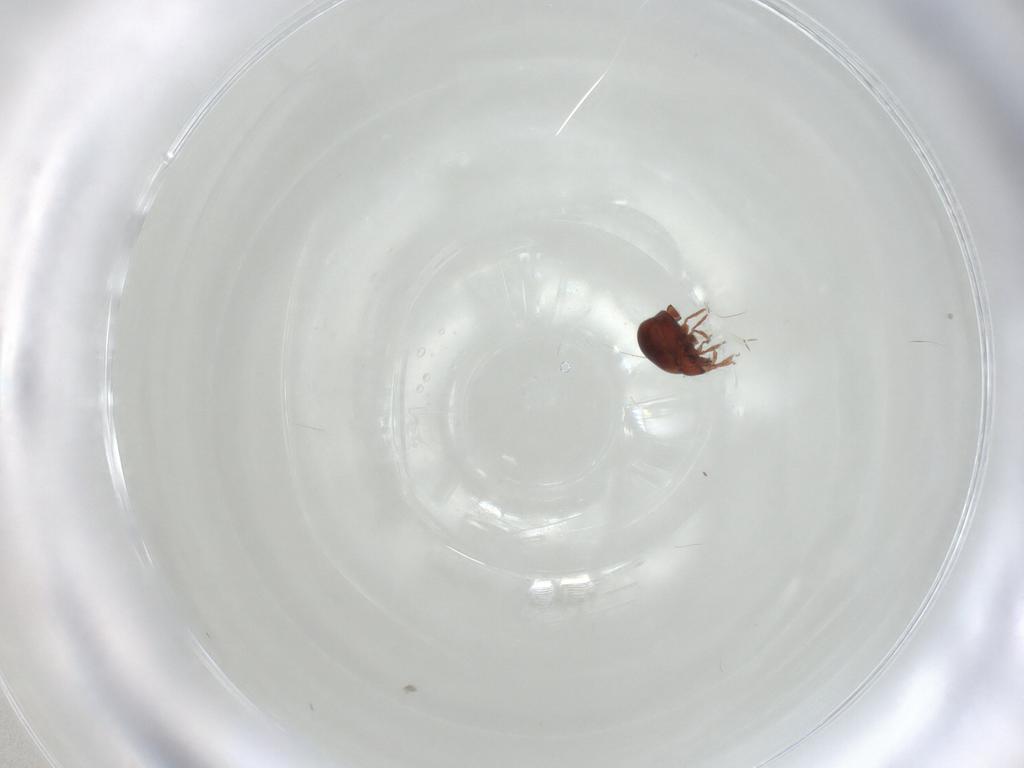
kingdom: Animalia
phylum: Arthropoda
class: Arachnida
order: Sarcoptiformes
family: Humerobatidae
